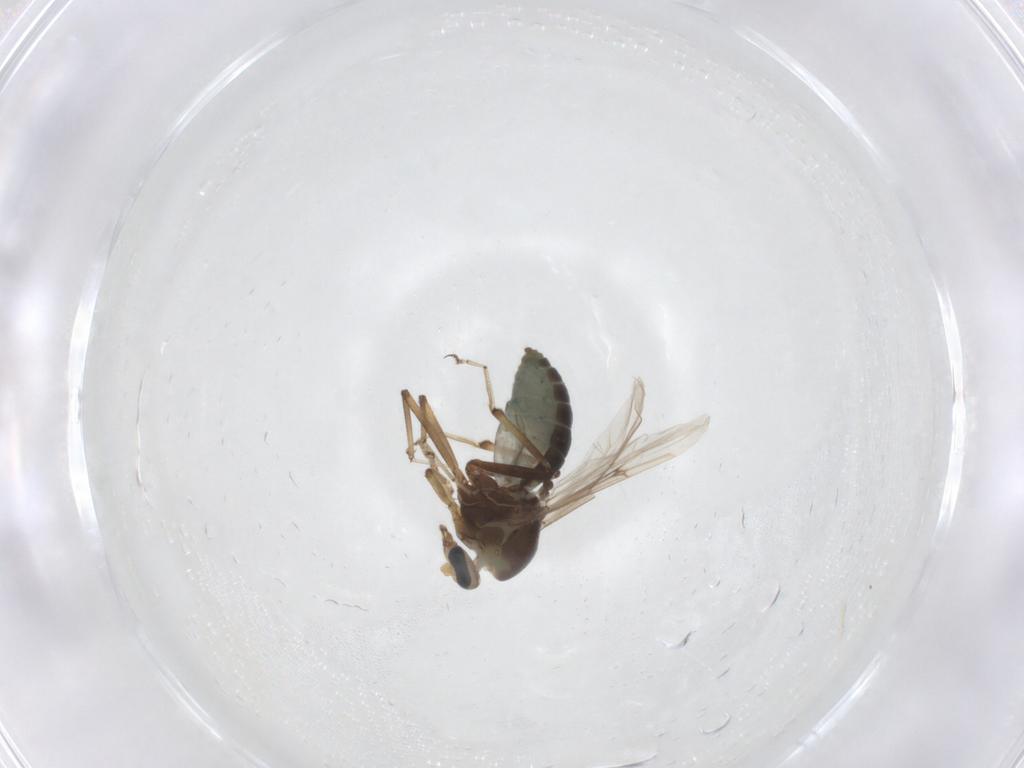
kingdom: Animalia
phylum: Arthropoda
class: Insecta
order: Diptera
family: Ceratopogonidae
